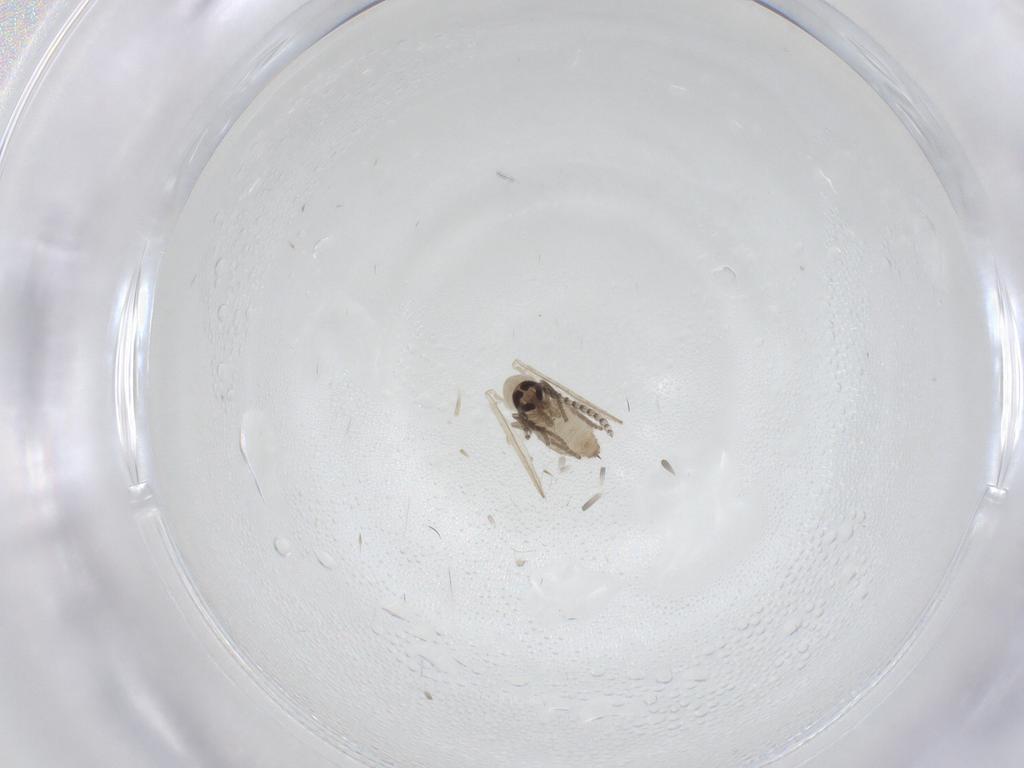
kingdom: Animalia
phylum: Arthropoda
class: Insecta
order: Diptera
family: Psychodidae
